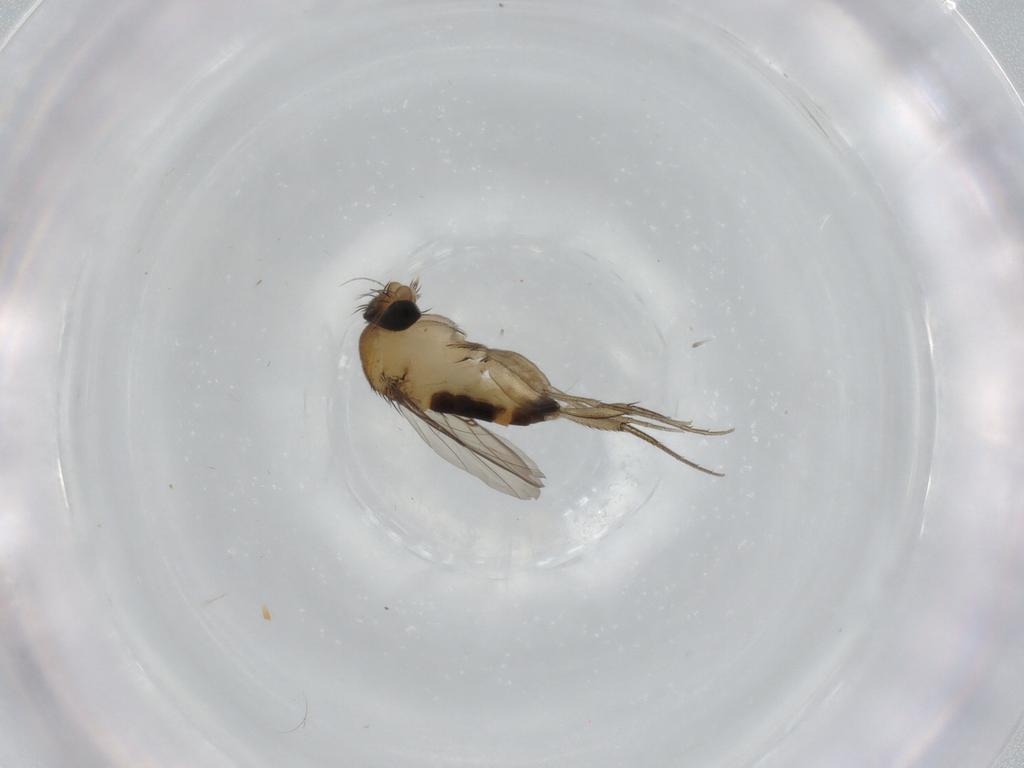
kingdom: Animalia
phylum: Arthropoda
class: Insecta
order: Diptera
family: Phoridae
